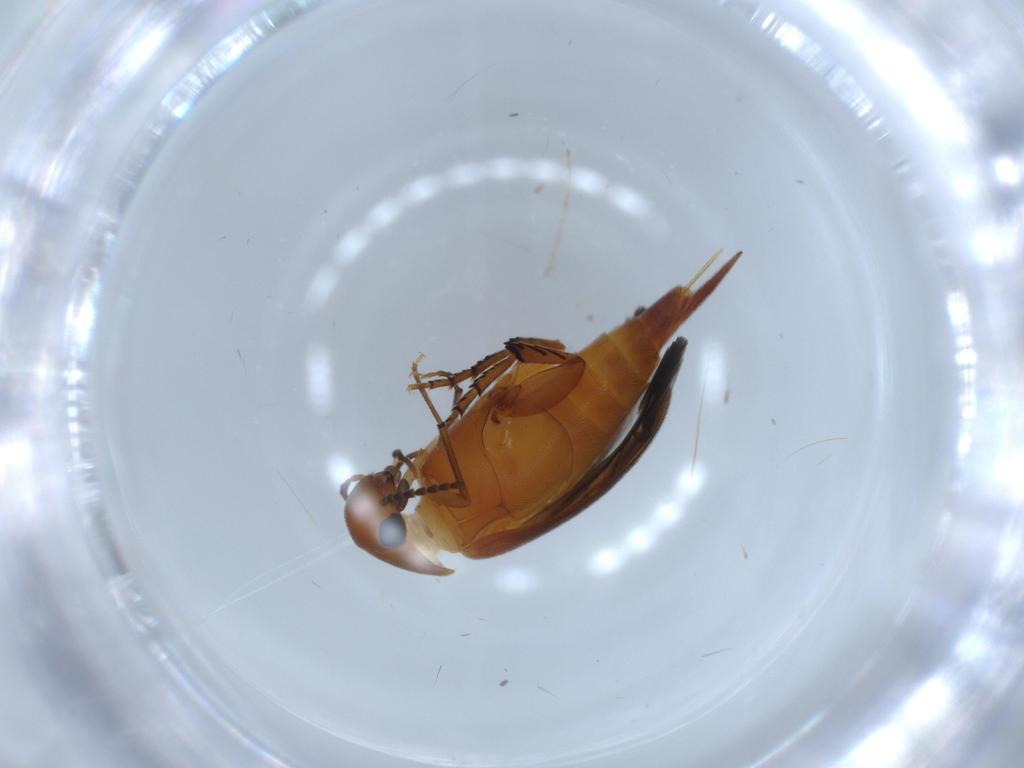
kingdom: Animalia
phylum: Arthropoda
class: Insecta
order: Coleoptera
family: Mordellidae
